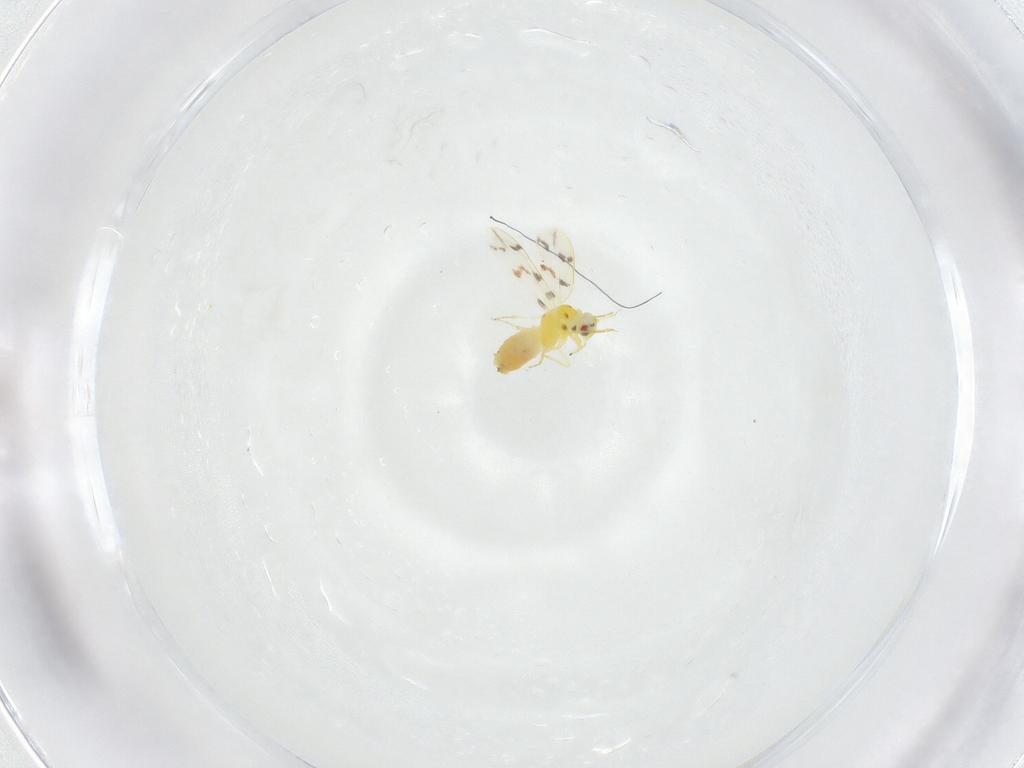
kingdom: Animalia
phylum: Arthropoda
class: Insecta
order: Hemiptera
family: Aleyrodidae
